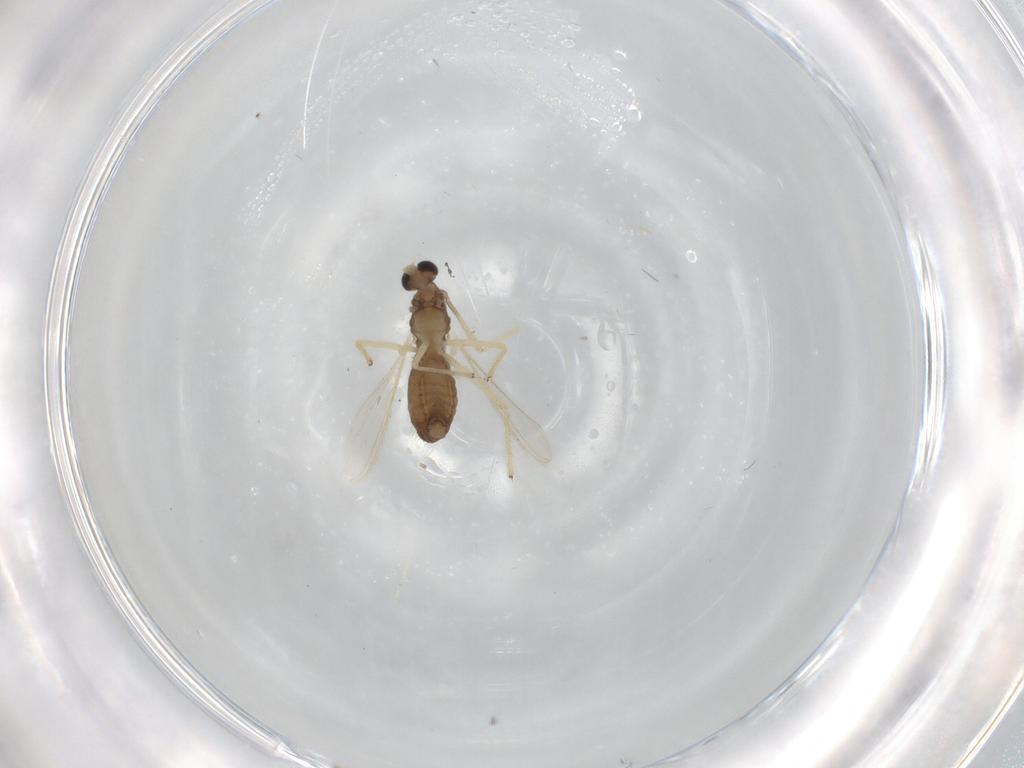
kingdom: Animalia
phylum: Arthropoda
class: Insecta
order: Diptera
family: Chironomidae
